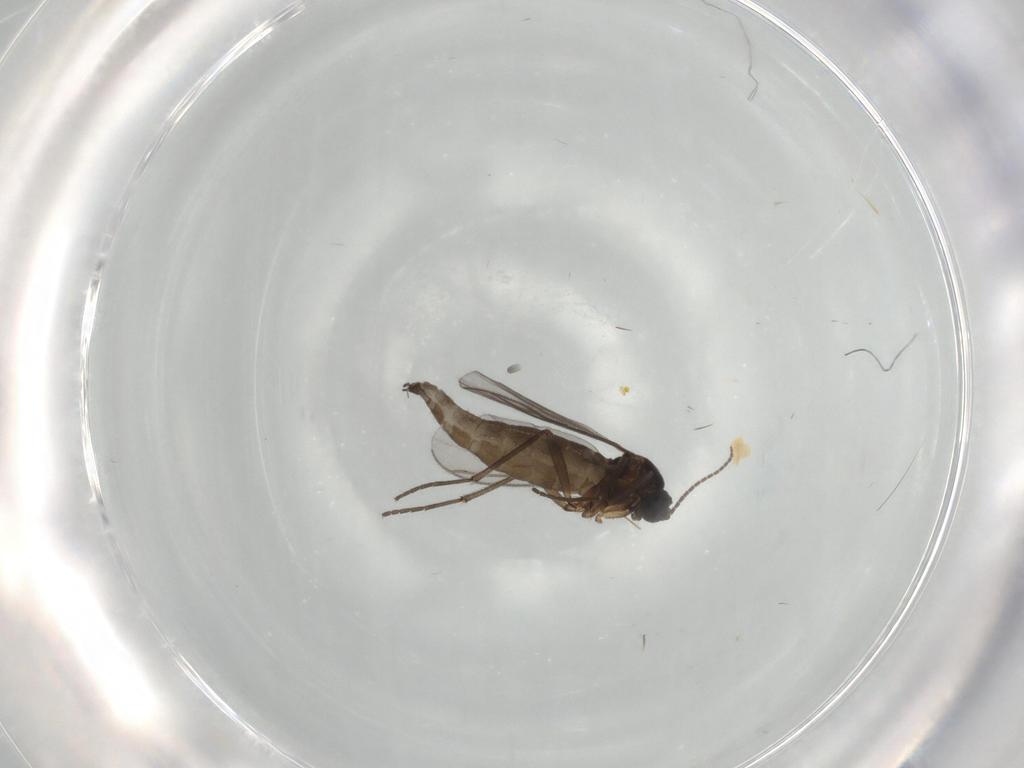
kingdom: Animalia
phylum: Arthropoda
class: Insecta
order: Diptera
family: Sciaridae
